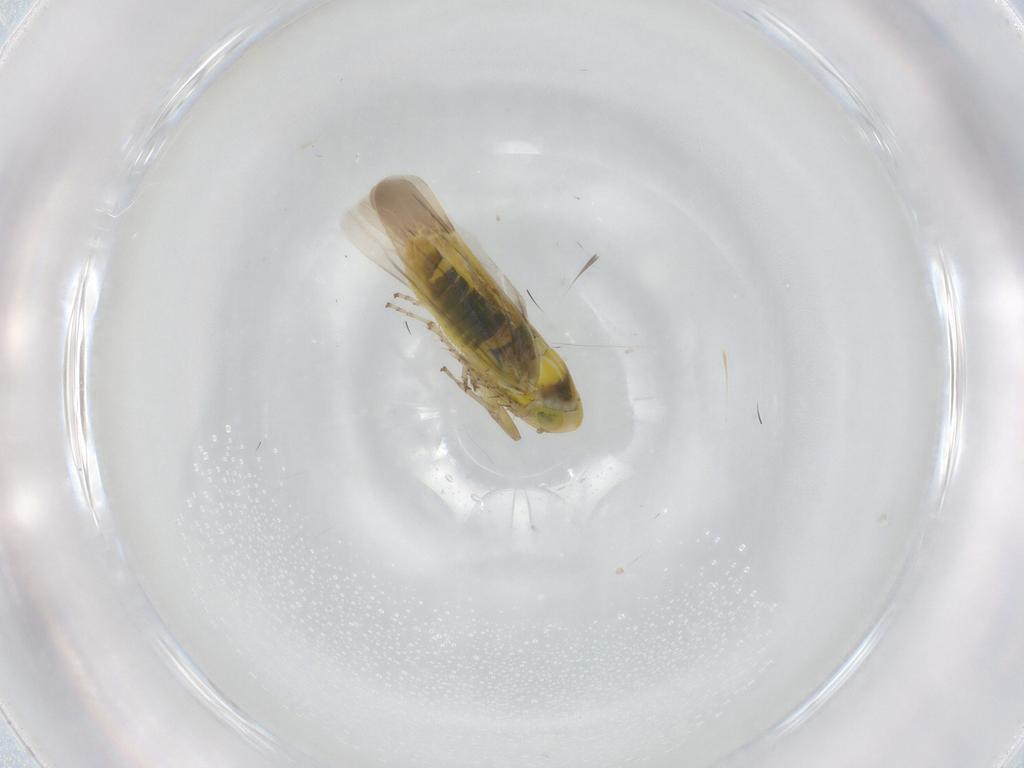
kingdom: Animalia
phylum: Arthropoda
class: Insecta
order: Hemiptera
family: Cicadellidae
